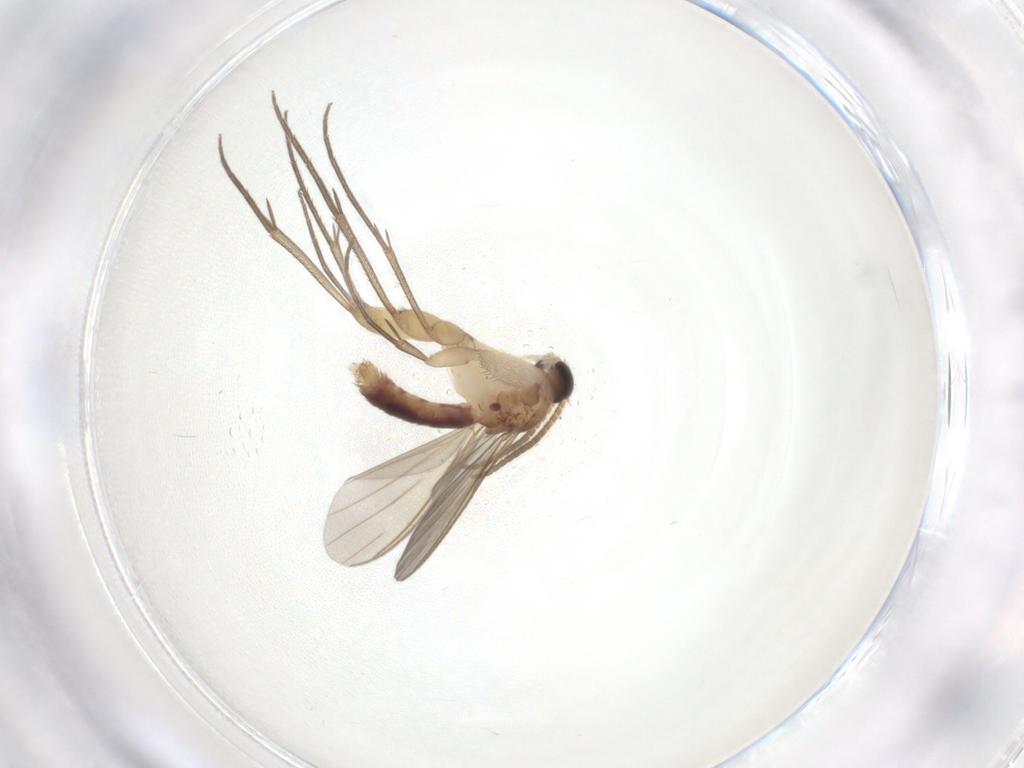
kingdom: Animalia
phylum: Arthropoda
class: Insecta
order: Diptera
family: Mycetophilidae
